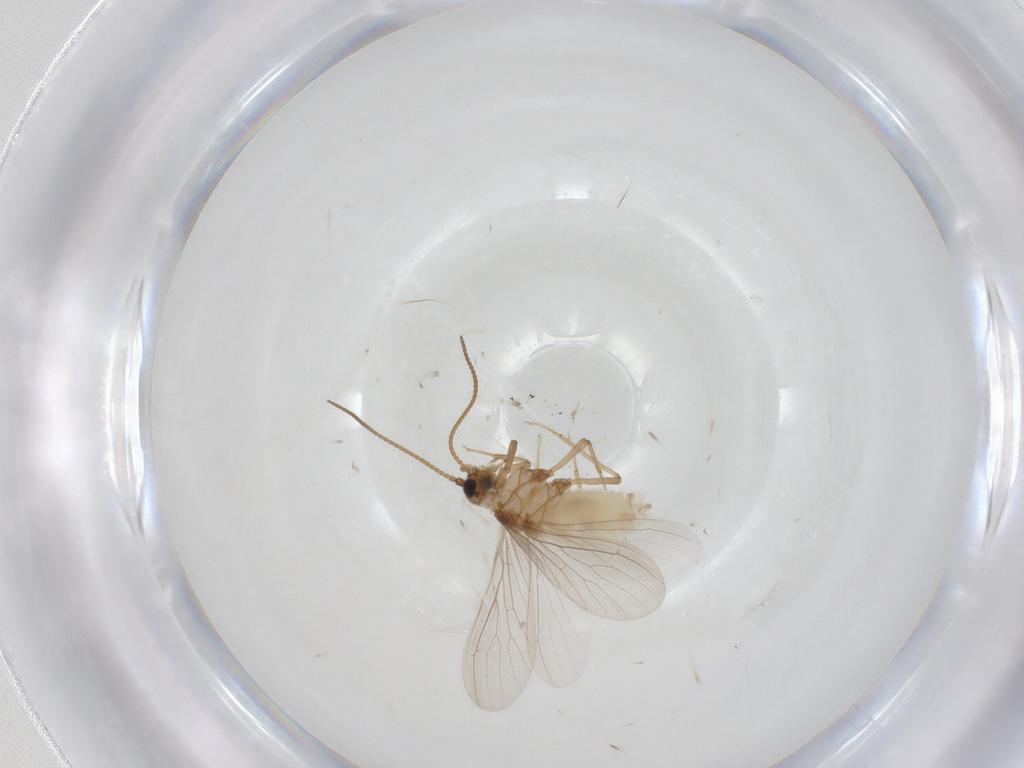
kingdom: Animalia
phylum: Arthropoda
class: Insecta
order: Neuroptera
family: Coniopterygidae
